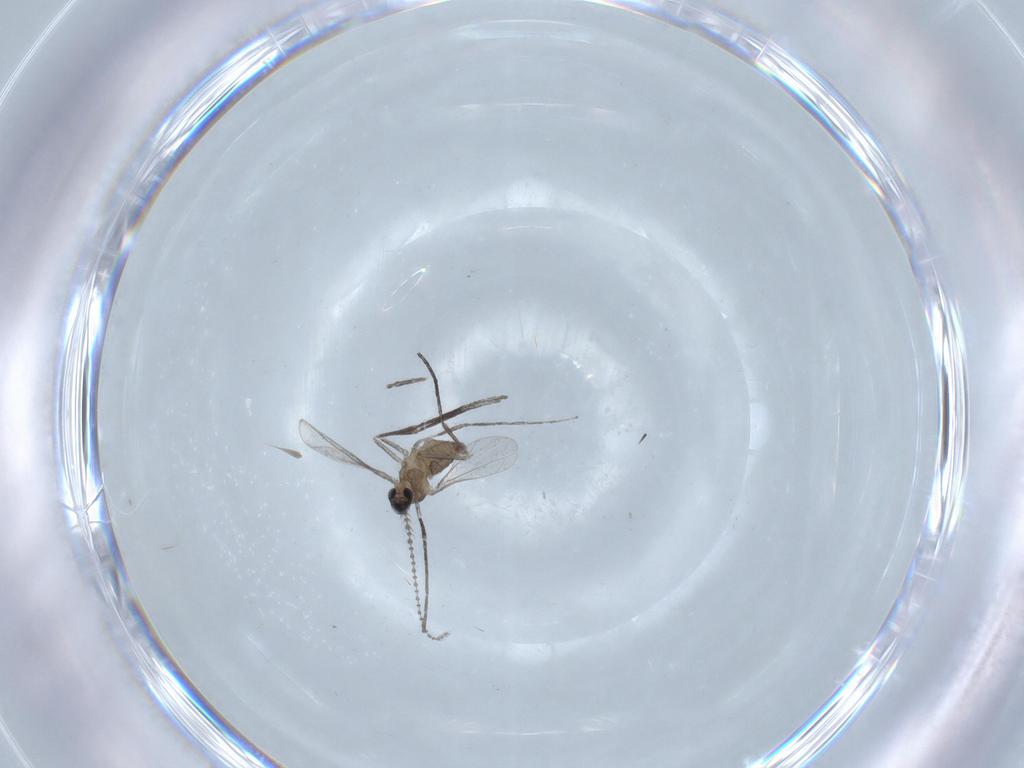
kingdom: Animalia
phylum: Arthropoda
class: Insecta
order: Diptera
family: Cecidomyiidae
